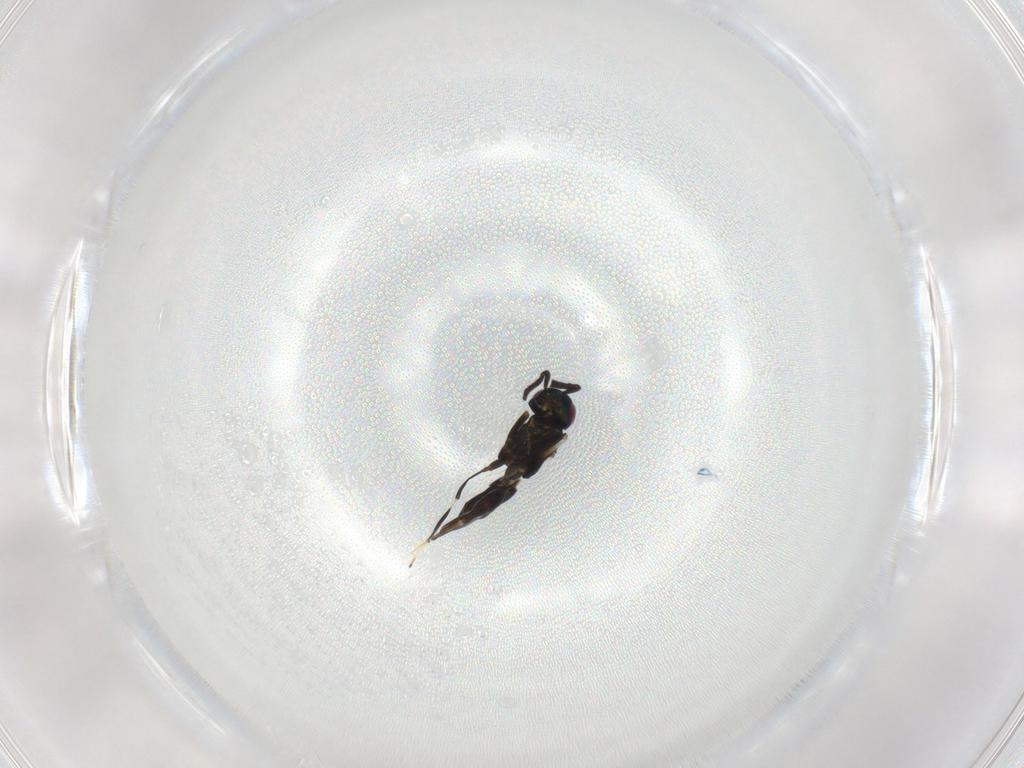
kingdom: Animalia
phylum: Arthropoda
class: Insecta
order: Hymenoptera
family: Encyrtidae
